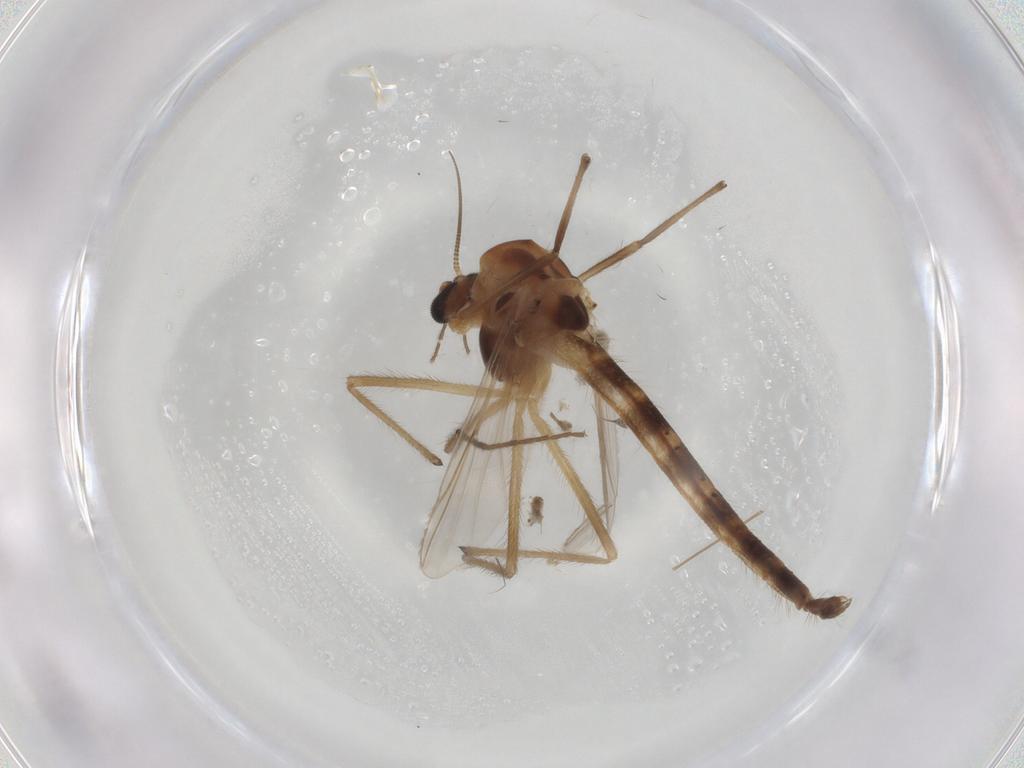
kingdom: Animalia
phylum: Arthropoda
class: Insecta
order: Diptera
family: Chironomidae
